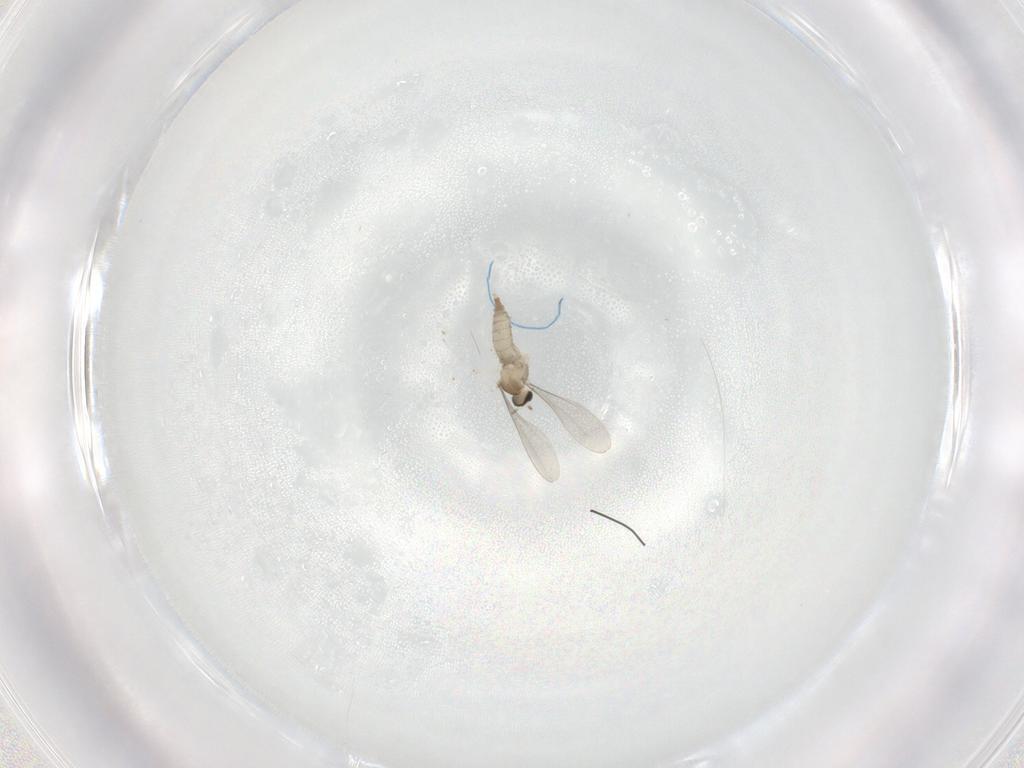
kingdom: Animalia
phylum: Arthropoda
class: Insecta
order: Diptera
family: Cecidomyiidae
